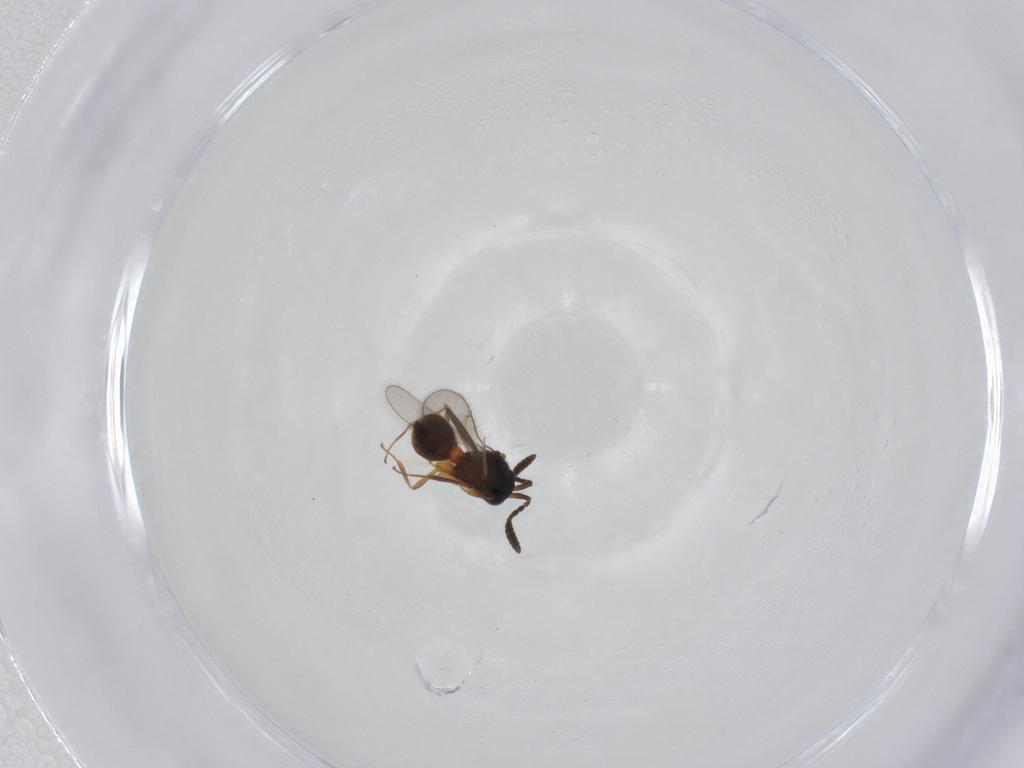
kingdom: Animalia
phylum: Arthropoda
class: Insecta
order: Hymenoptera
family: Scelionidae
